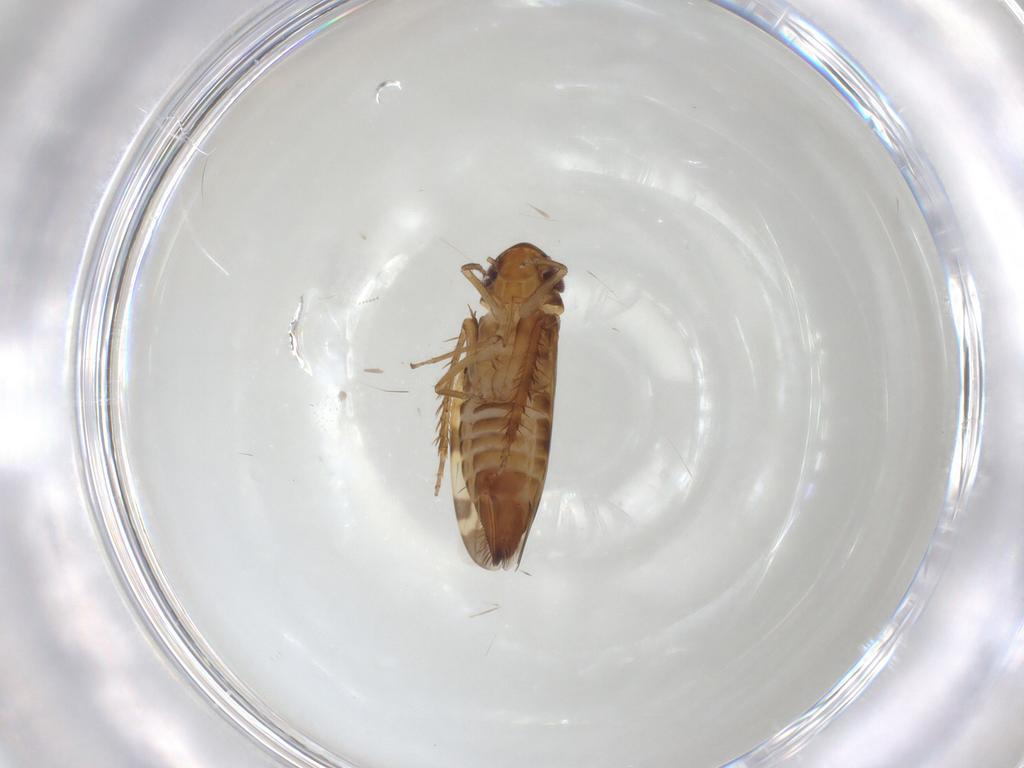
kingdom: Animalia
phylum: Arthropoda
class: Insecta
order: Hemiptera
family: Cicadellidae
